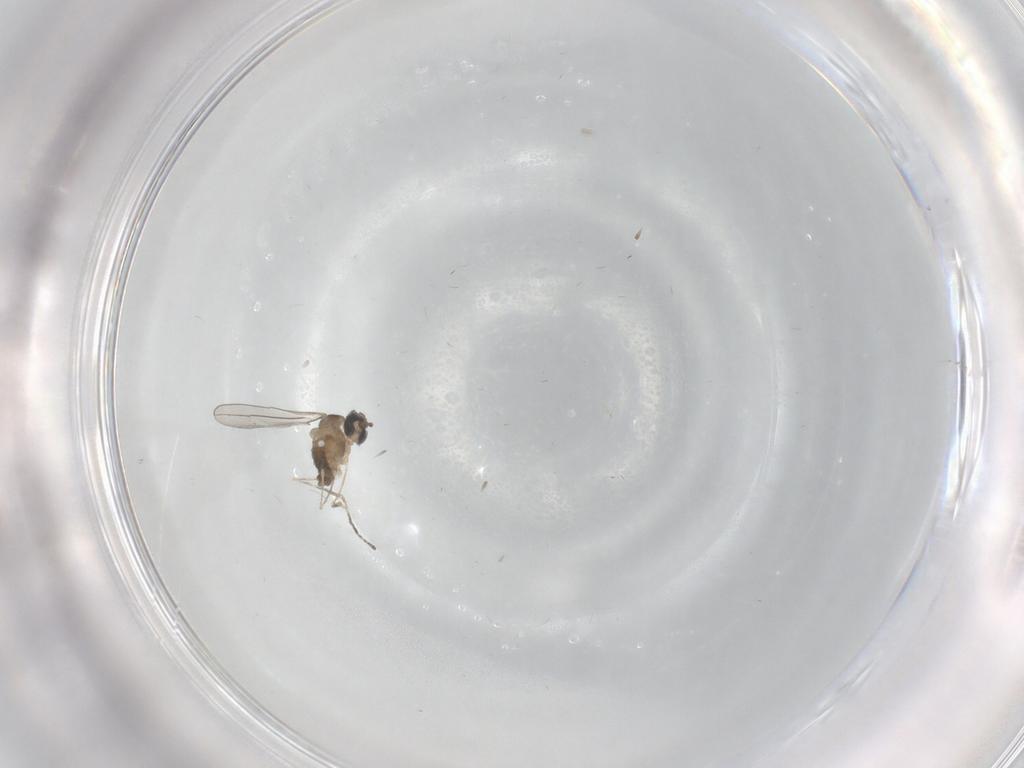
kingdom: Animalia
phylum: Arthropoda
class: Insecta
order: Diptera
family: Cecidomyiidae
